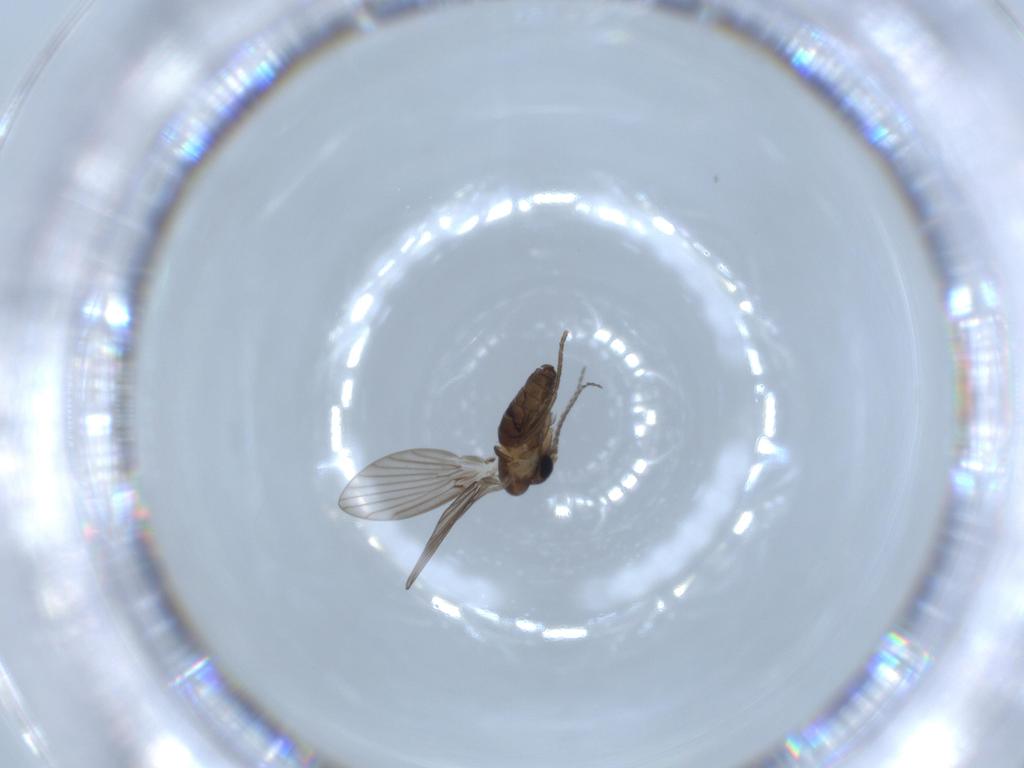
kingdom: Animalia
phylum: Arthropoda
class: Insecta
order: Diptera
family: Psychodidae
